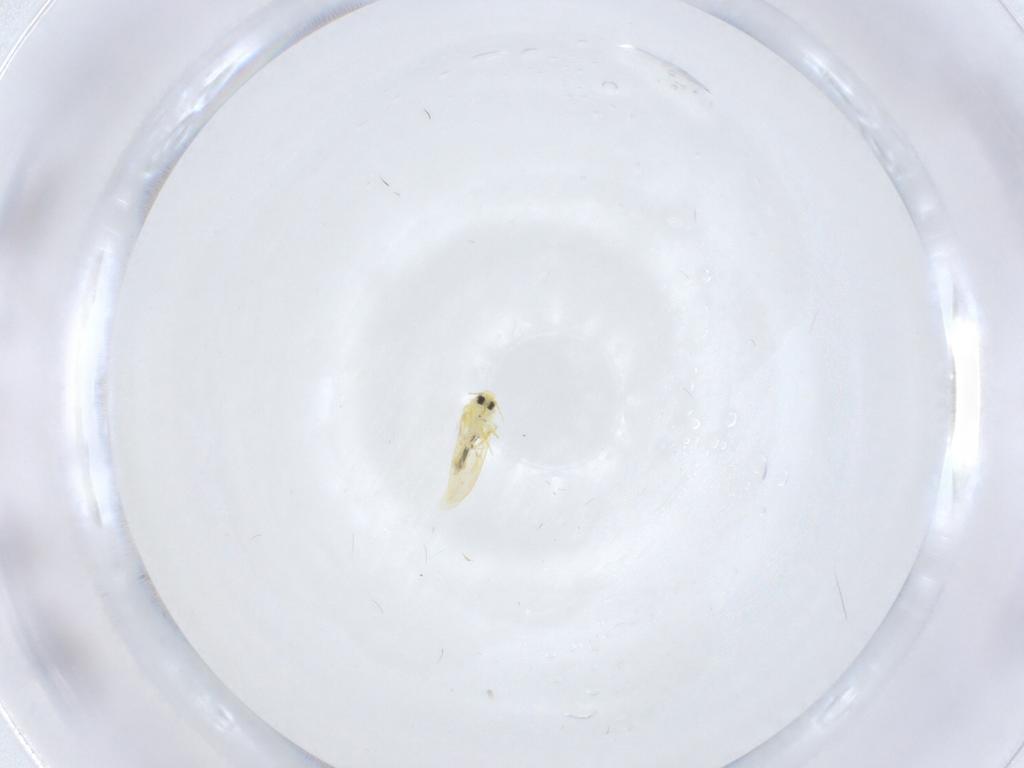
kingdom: Animalia
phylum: Arthropoda
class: Insecta
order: Hemiptera
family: Aleyrodidae
